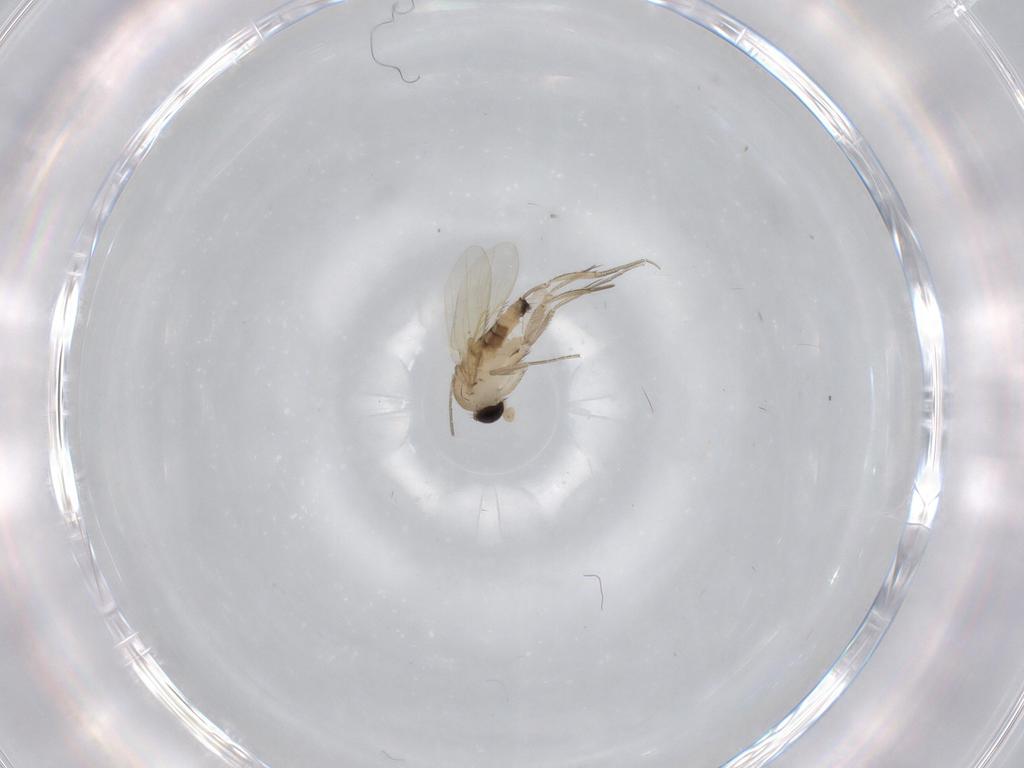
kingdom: Animalia
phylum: Arthropoda
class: Insecta
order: Diptera
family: Phoridae
